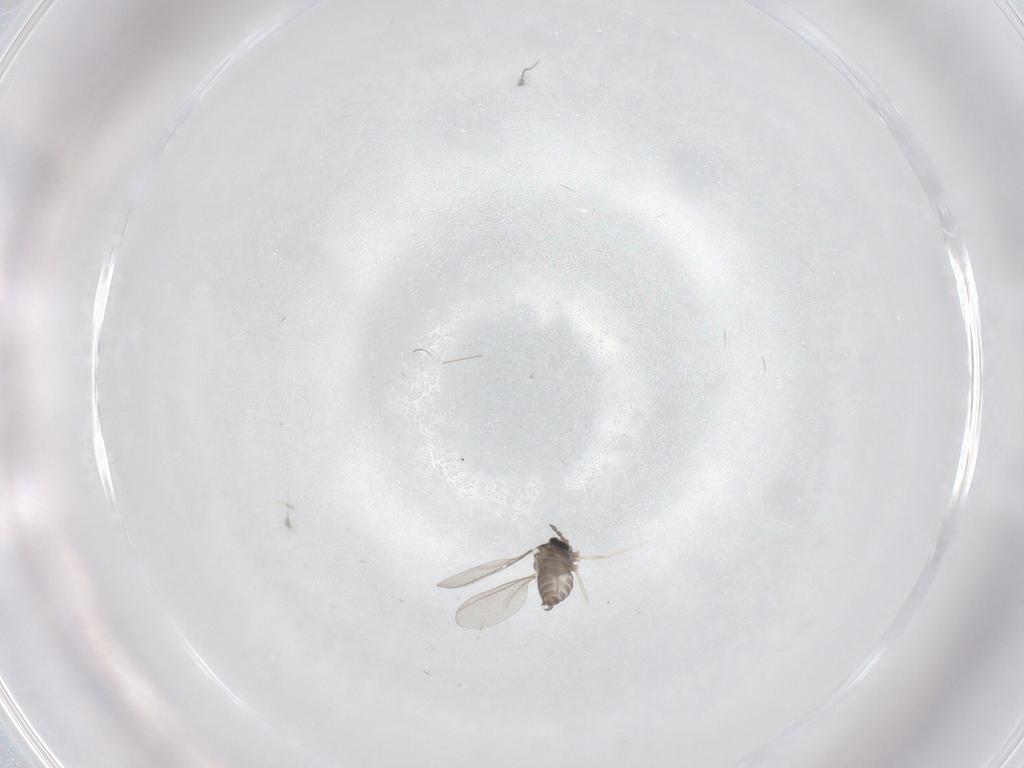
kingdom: Animalia
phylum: Arthropoda
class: Insecta
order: Diptera
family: Cecidomyiidae
